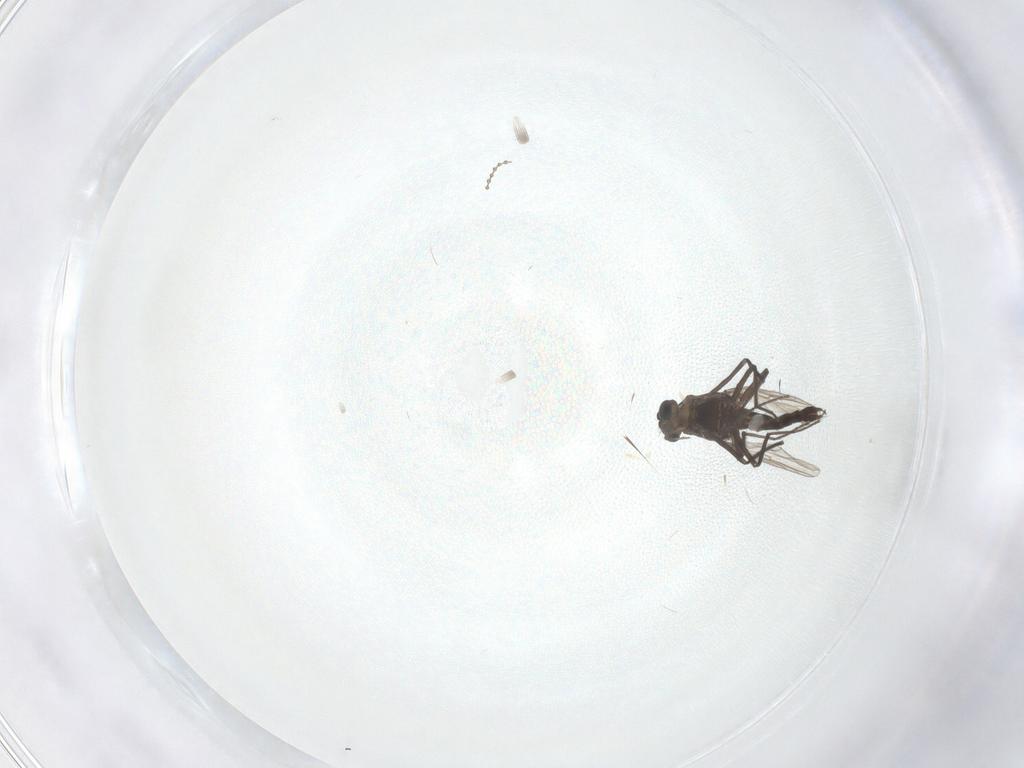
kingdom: Animalia
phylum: Arthropoda
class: Insecta
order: Diptera
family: Chironomidae
